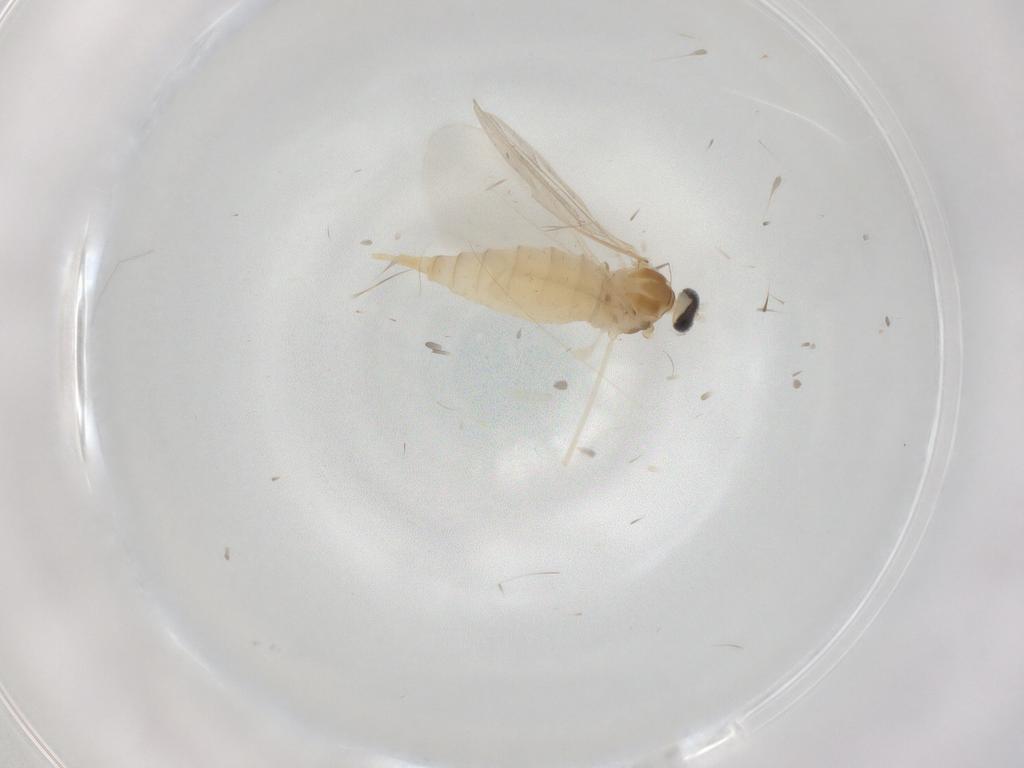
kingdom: Animalia
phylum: Arthropoda
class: Insecta
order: Diptera
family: Cecidomyiidae
